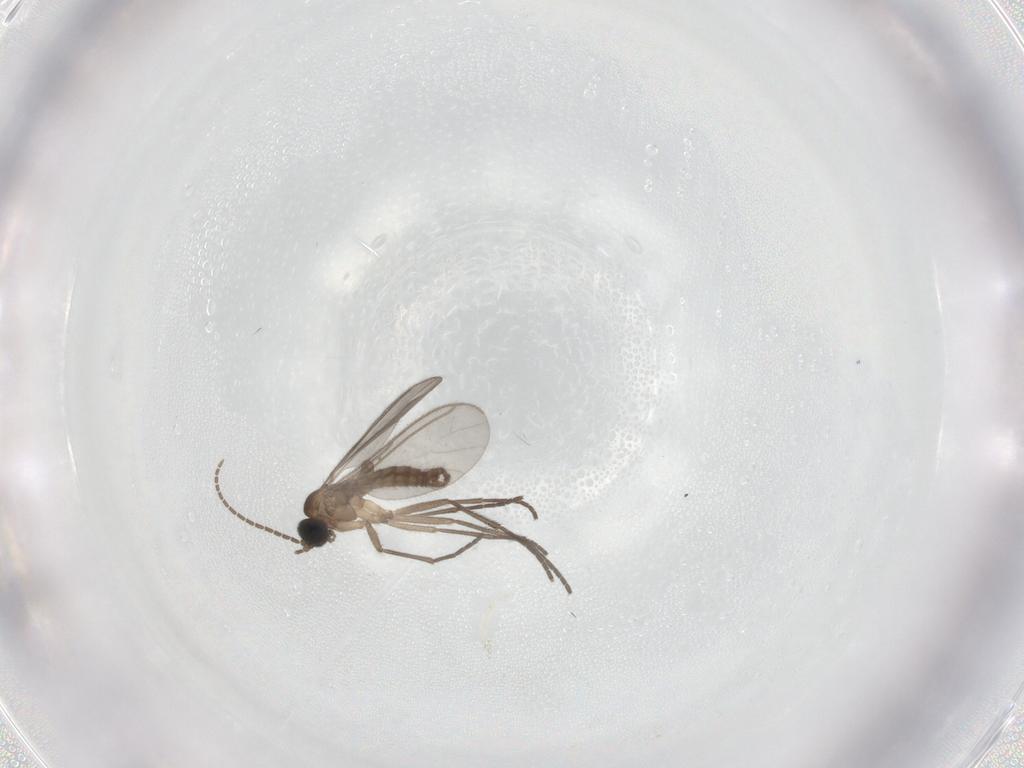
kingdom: Animalia
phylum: Arthropoda
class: Insecta
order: Diptera
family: Sciaridae
